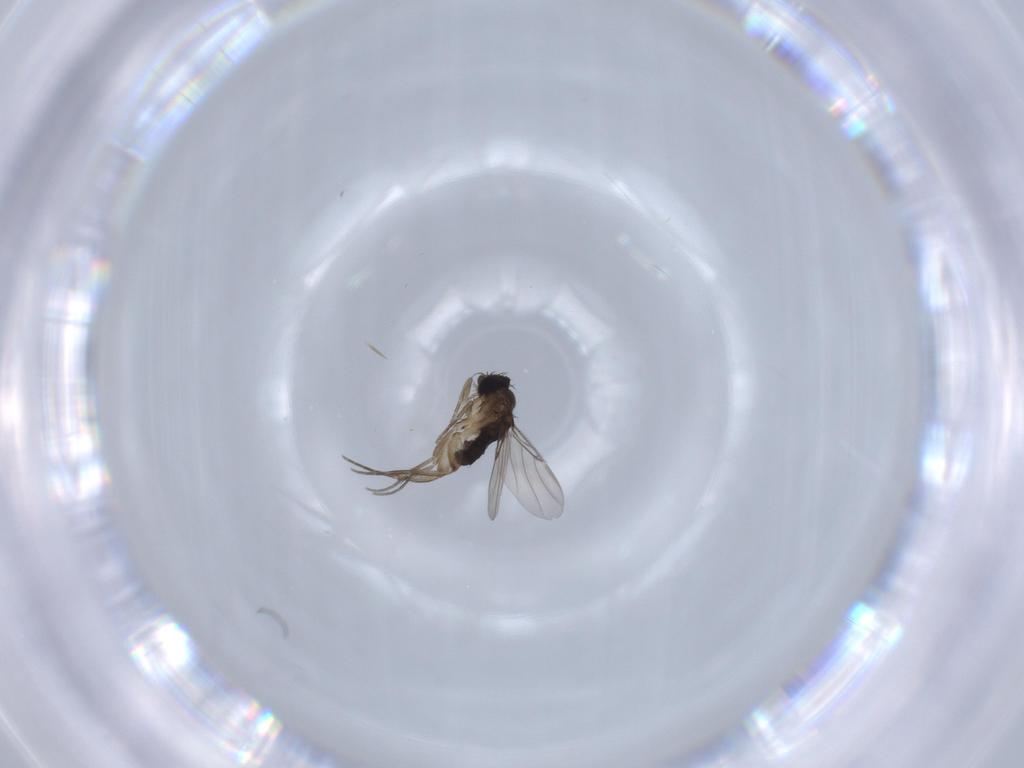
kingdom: Animalia
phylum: Arthropoda
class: Insecta
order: Diptera
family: Phoridae
